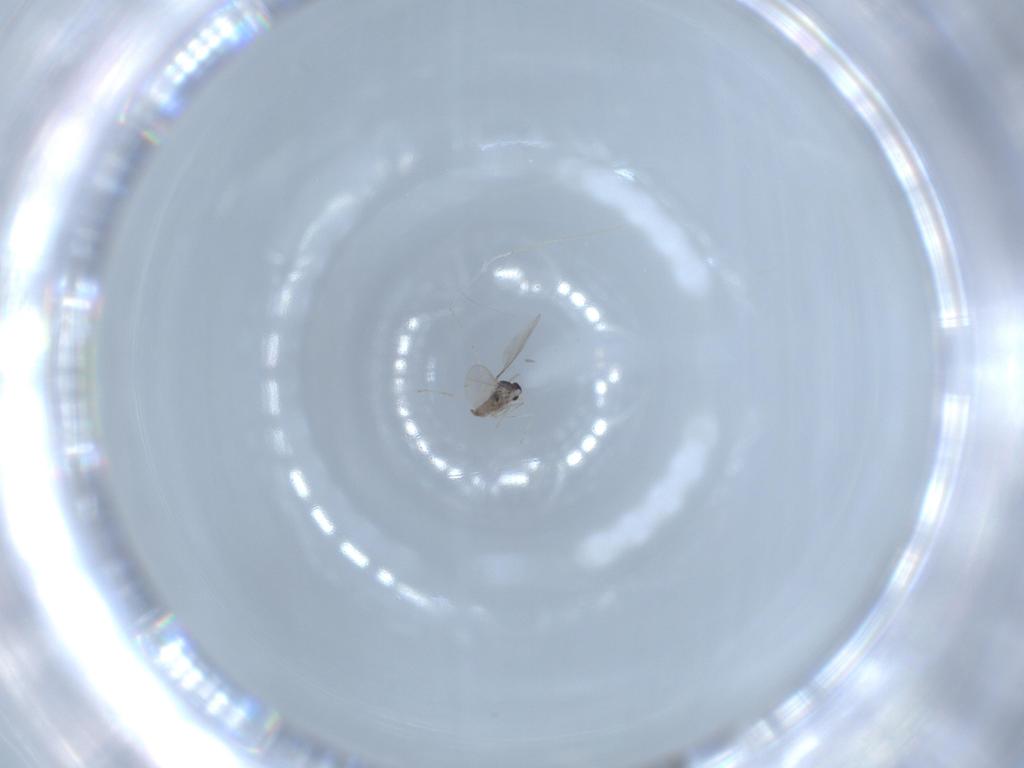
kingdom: Animalia
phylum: Arthropoda
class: Insecta
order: Diptera
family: Cecidomyiidae
